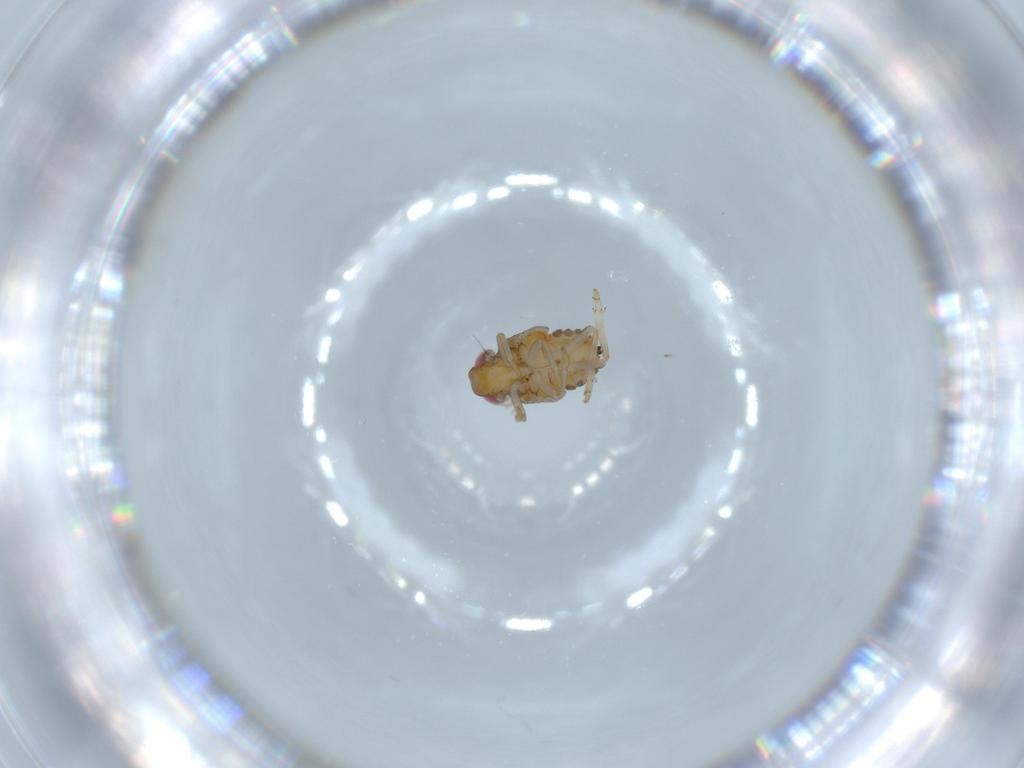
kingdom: Animalia
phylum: Arthropoda
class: Insecta
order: Hemiptera
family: Issidae
